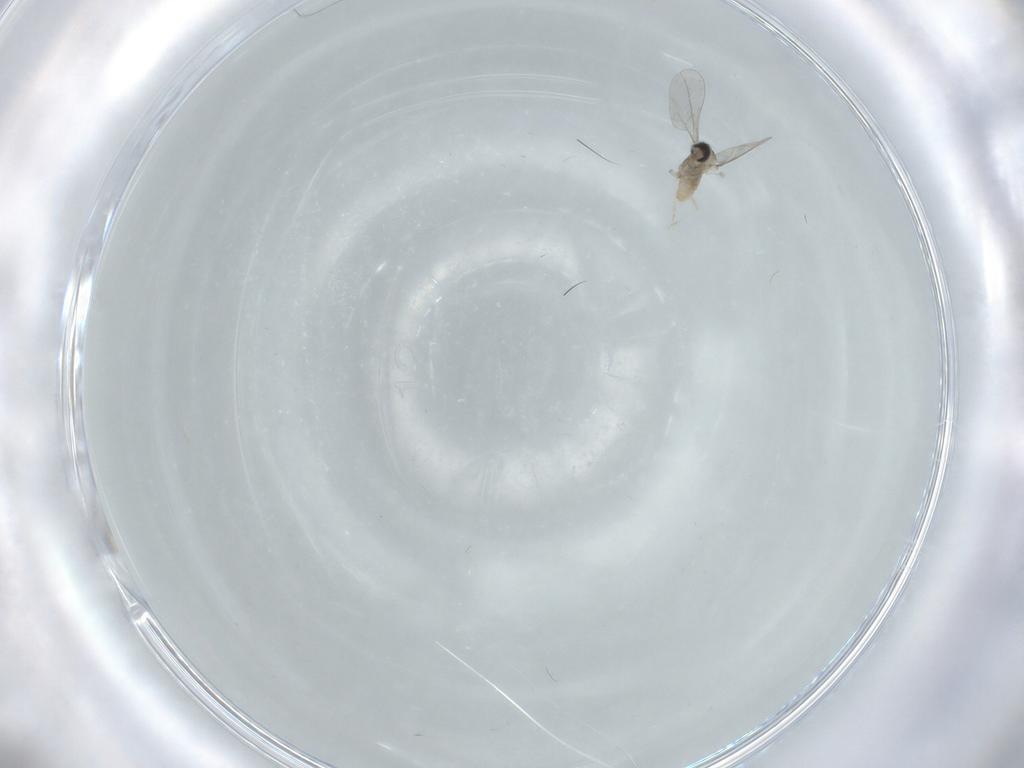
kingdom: Animalia
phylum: Arthropoda
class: Insecta
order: Diptera
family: Cecidomyiidae
